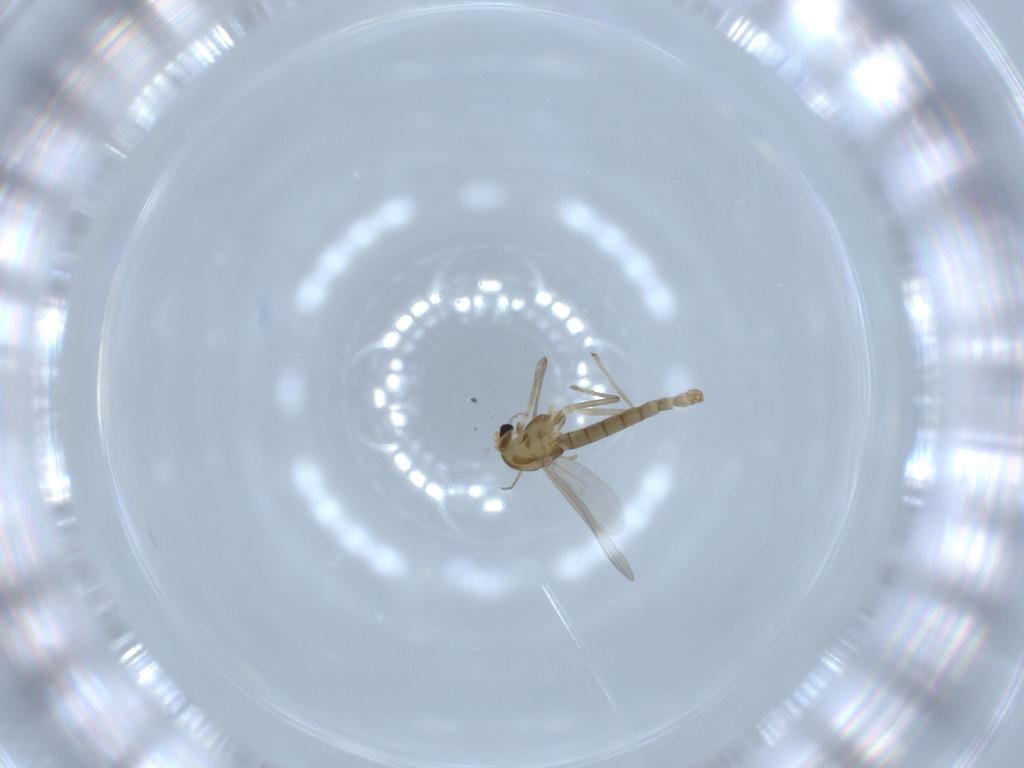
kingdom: Animalia
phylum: Arthropoda
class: Insecta
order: Diptera
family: Chironomidae
